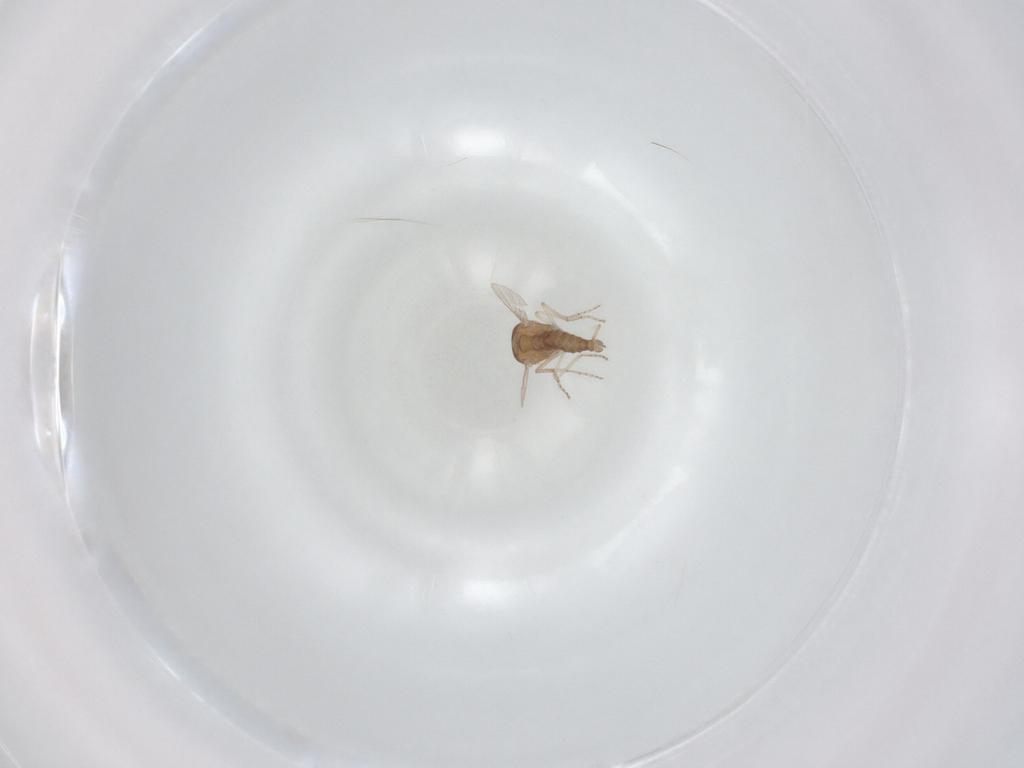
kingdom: Animalia
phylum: Arthropoda
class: Insecta
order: Diptera
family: Ceratopogonidae
